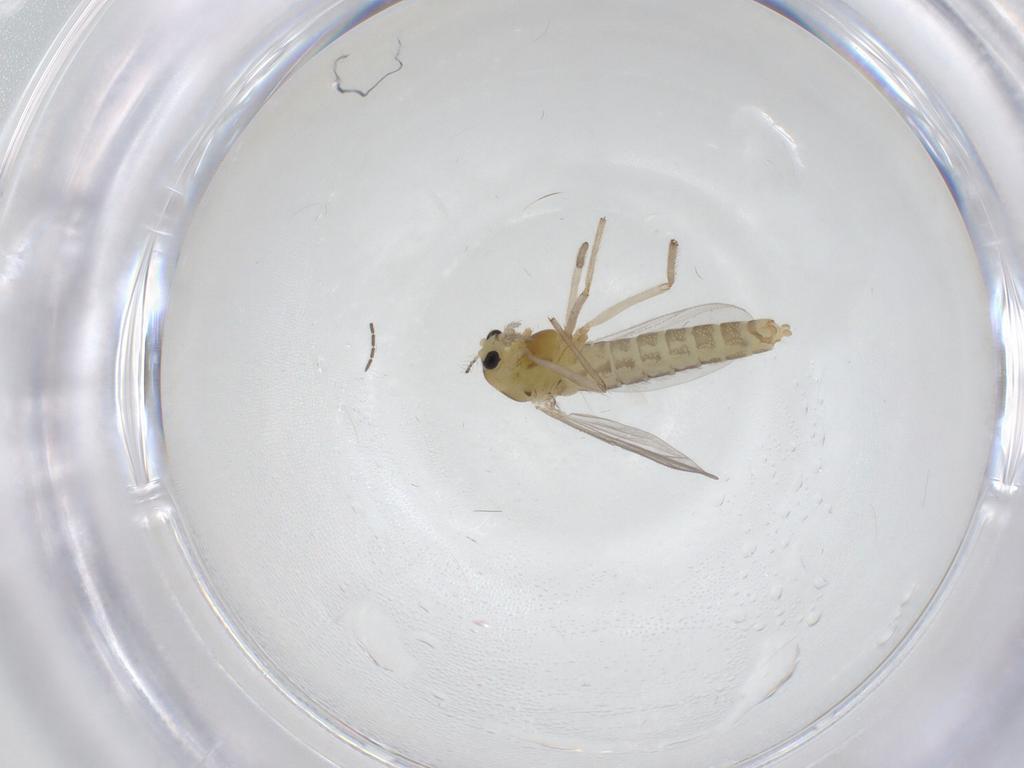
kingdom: Animalia
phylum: Arthropoda
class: Insecta
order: Diptera
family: Chironomidae
